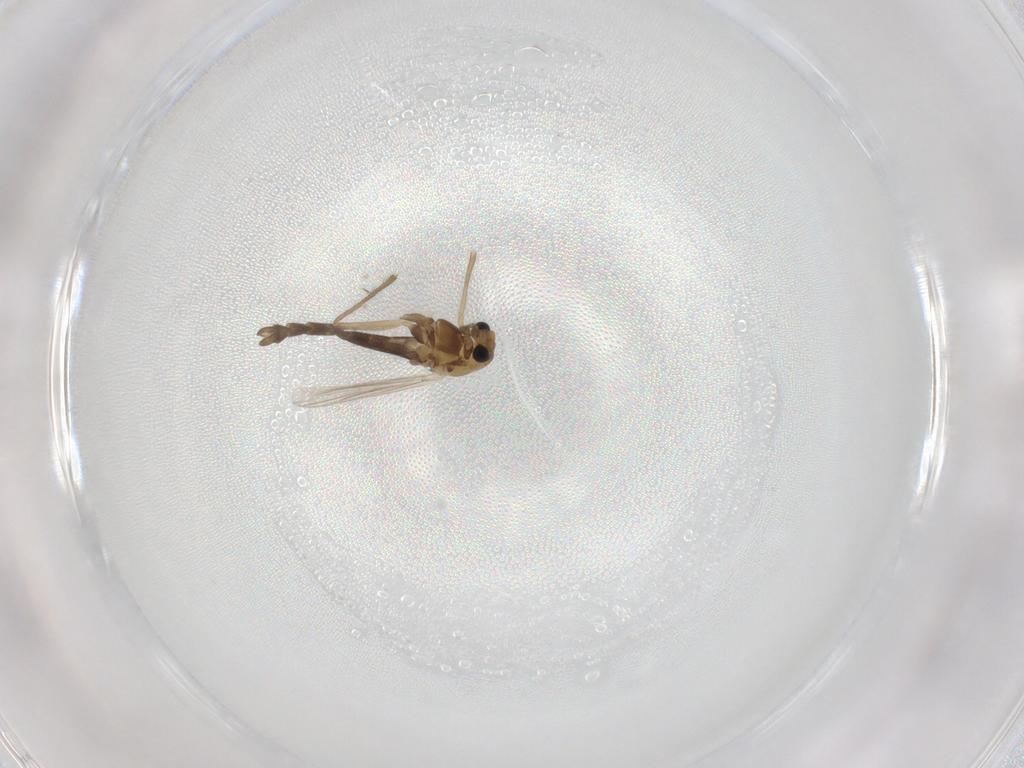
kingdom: Animalia
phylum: Arthropoda
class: Insecta
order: Diptera
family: Chironomidae
